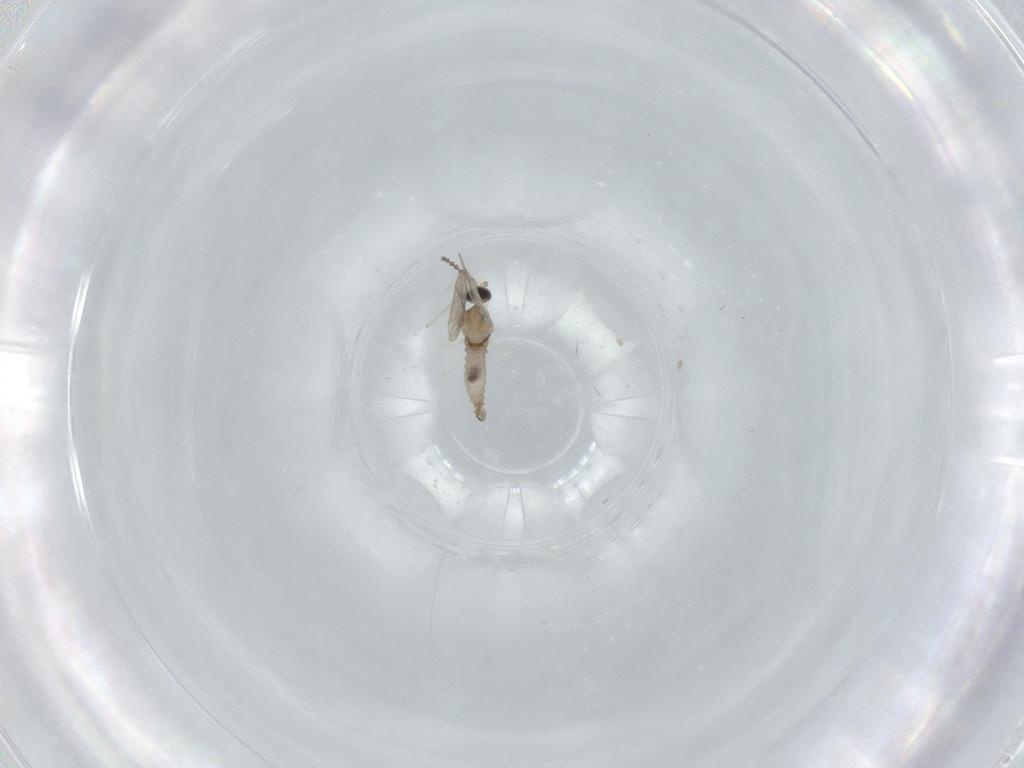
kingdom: Animalia
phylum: Arthropoda
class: Insecta
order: Diptera
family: Cecidomyiidae
